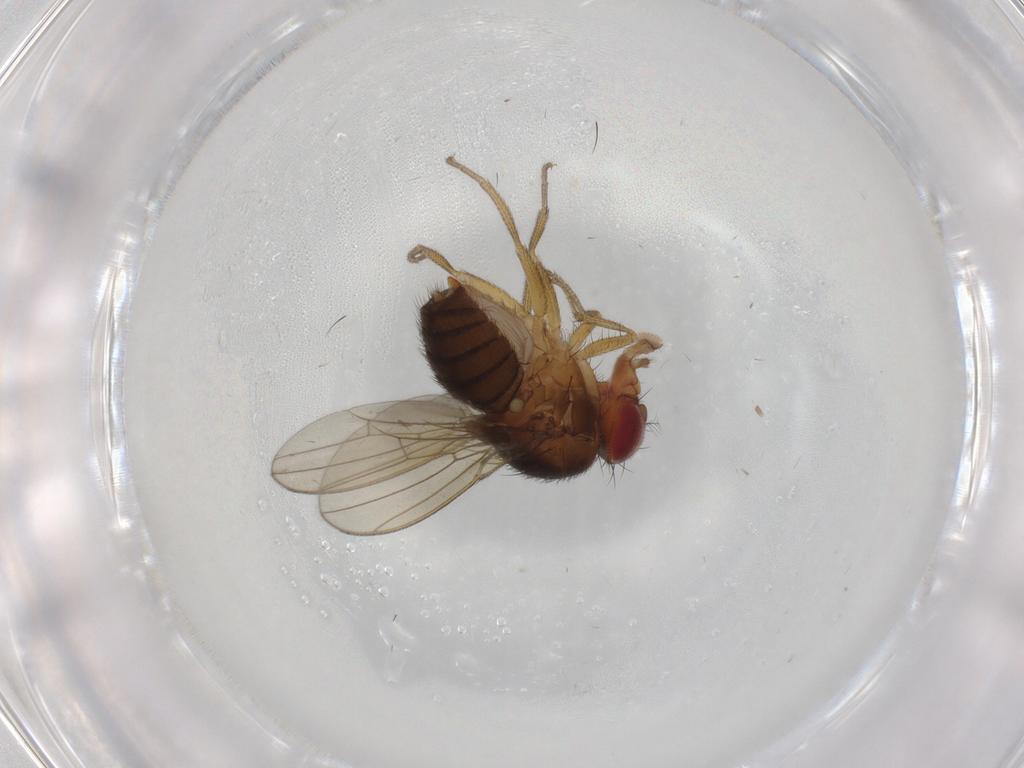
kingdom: Animalia
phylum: Arthropoda
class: Insecta
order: Diptera
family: Drosophilidae
